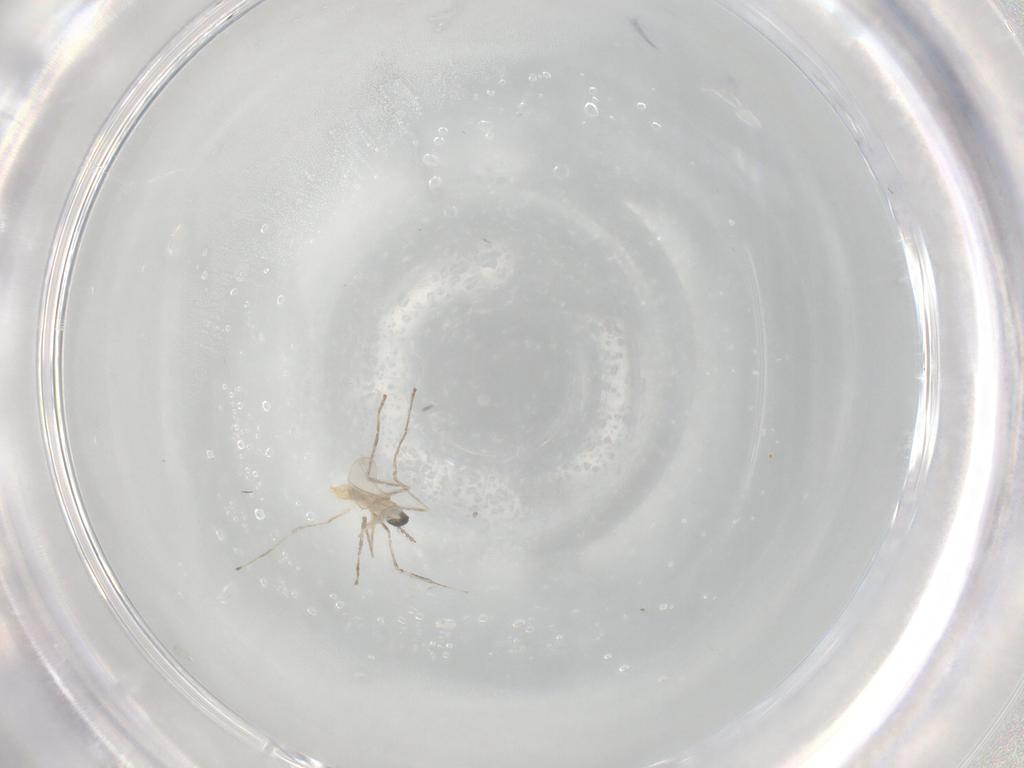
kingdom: Animalia
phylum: Arthropoda
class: Insecta
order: Diptera
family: Cecidomyiidae
